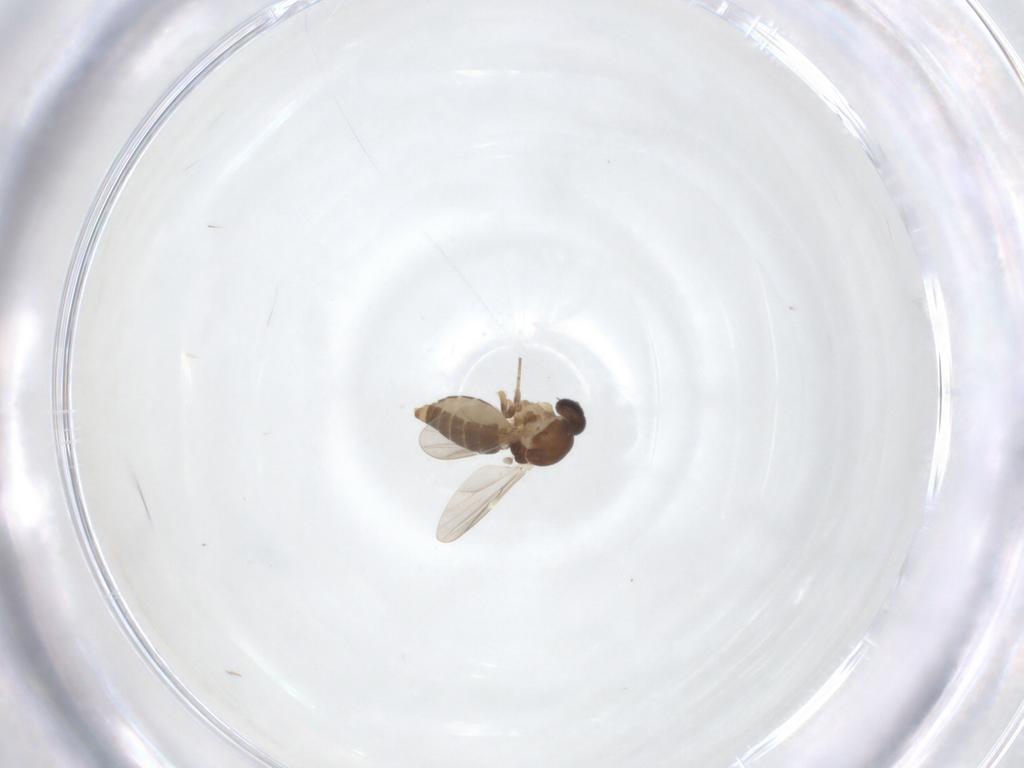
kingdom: Animalia
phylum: Arthropoda
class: Insecta
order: Diptera
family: Ceratopogonidae
